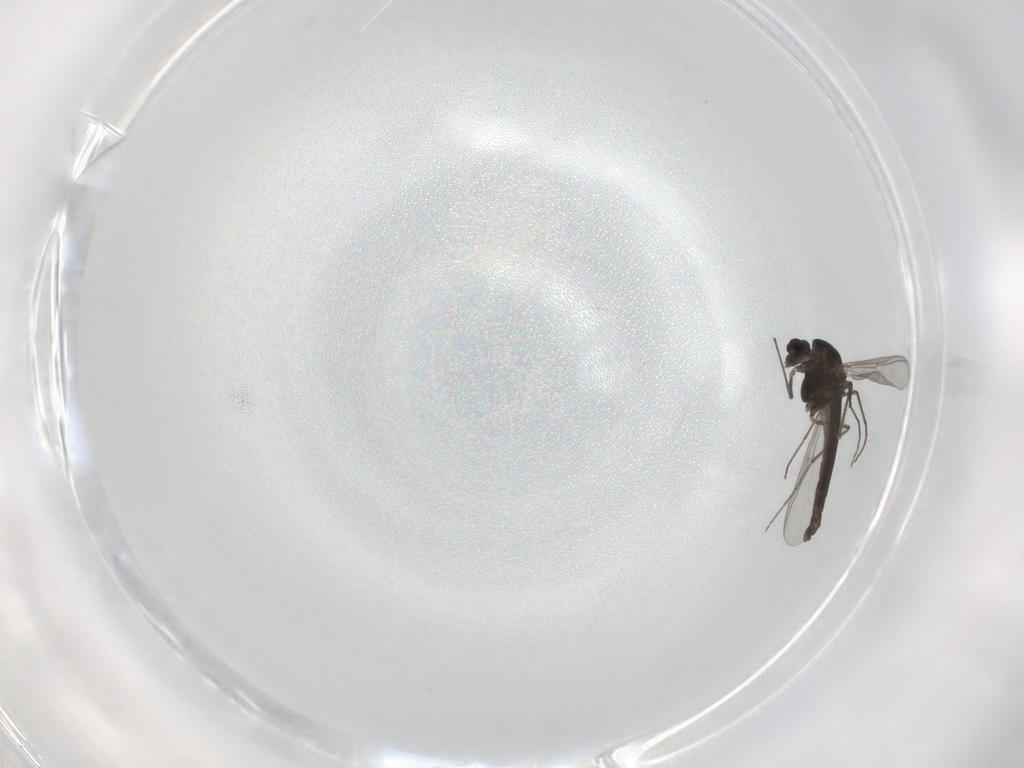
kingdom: Animalia
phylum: Arthropoda
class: Insecta
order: Diptera
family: Chironomidae
